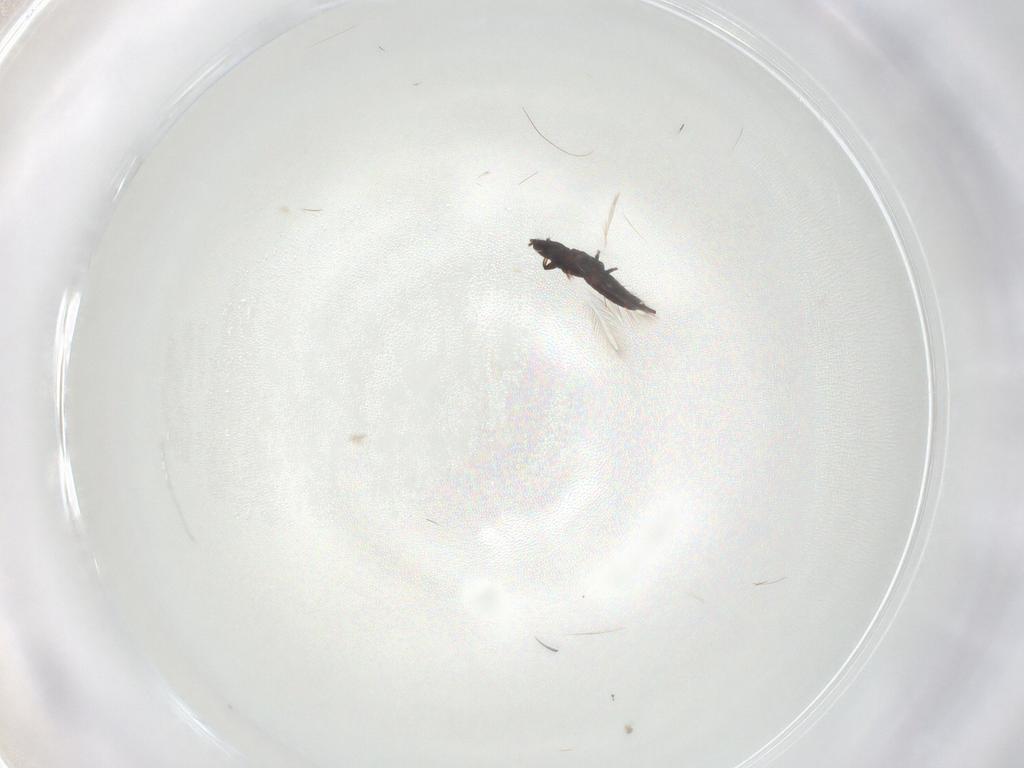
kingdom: Animalia
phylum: Arthropoda
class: Insecta
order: Thysanoptera
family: Phlaeothripidae
